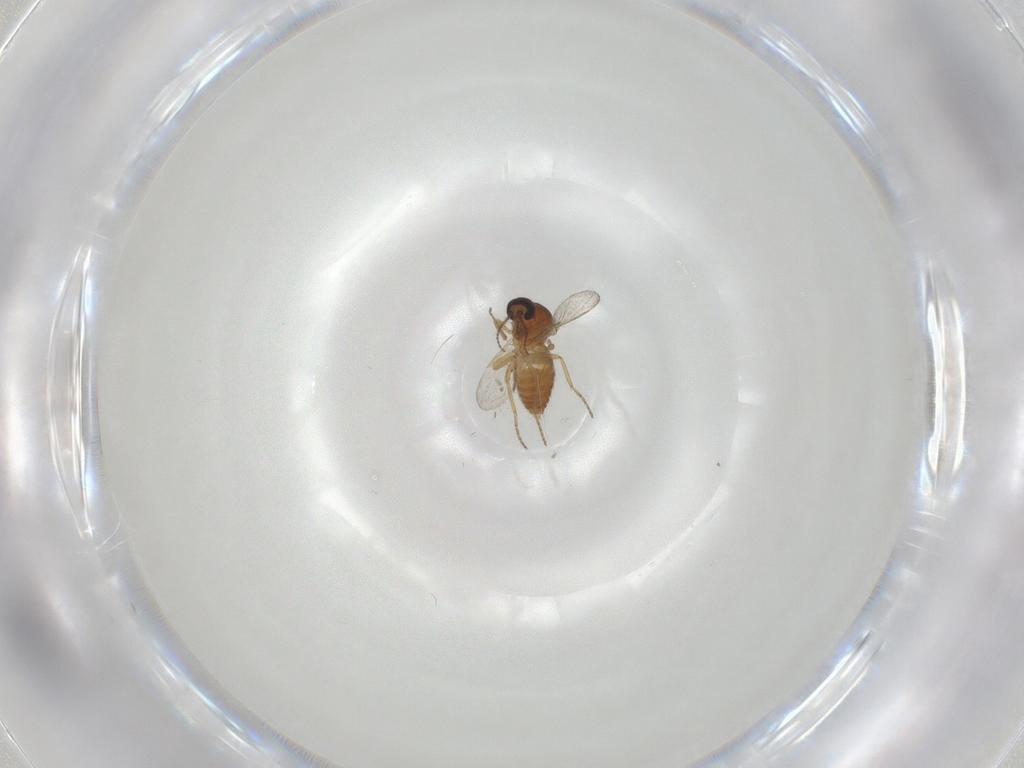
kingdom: Animalia
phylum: Arthropoda
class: Insecta
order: Diptera
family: Ceratopogonidae
